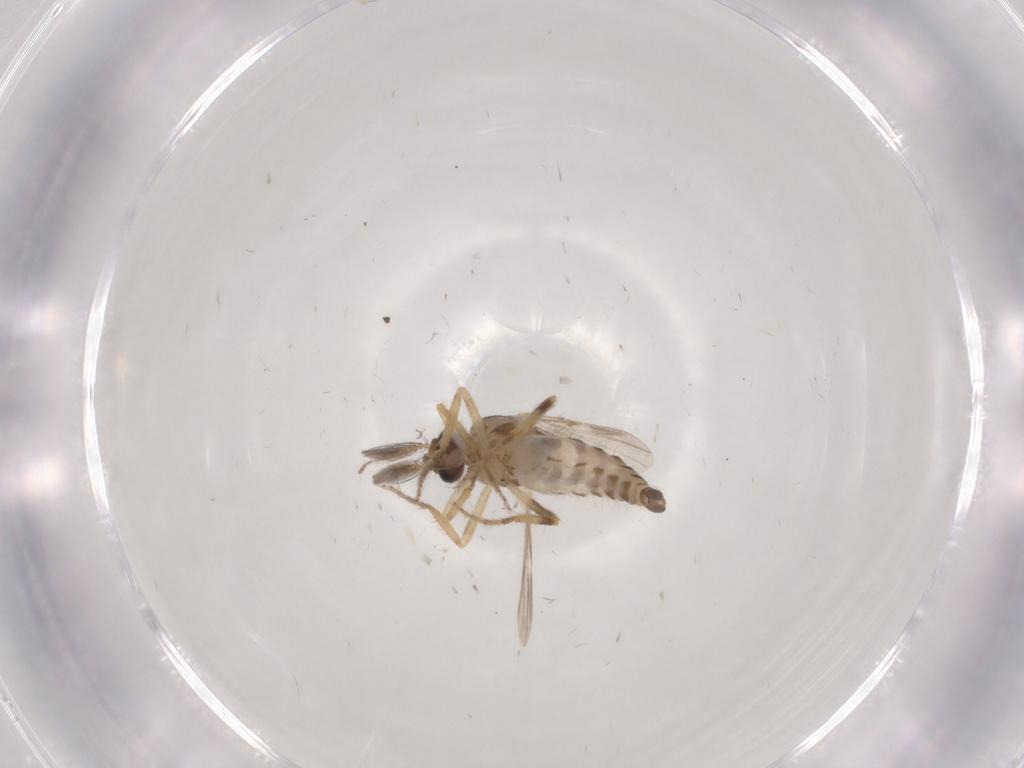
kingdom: Animalia
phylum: Arthropoda
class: Insecta
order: Diptera
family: Ceratopogonidae
